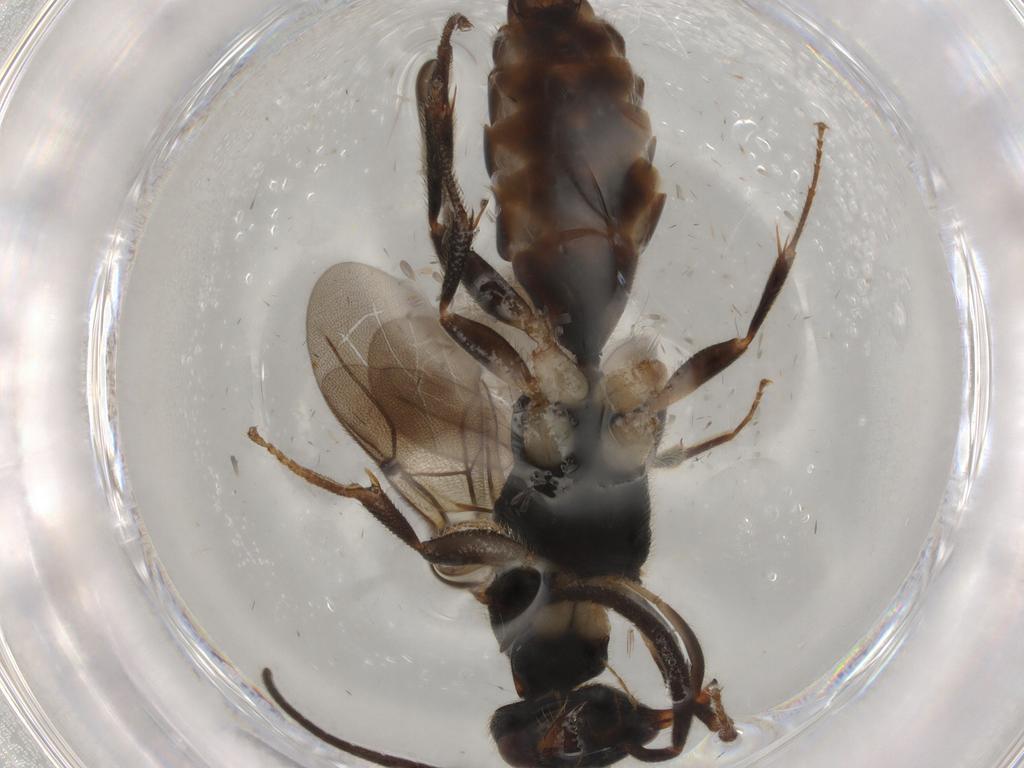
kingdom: Animalia
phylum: Arthropoda
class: Insecta
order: Hymenoptera
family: Bethylidae
